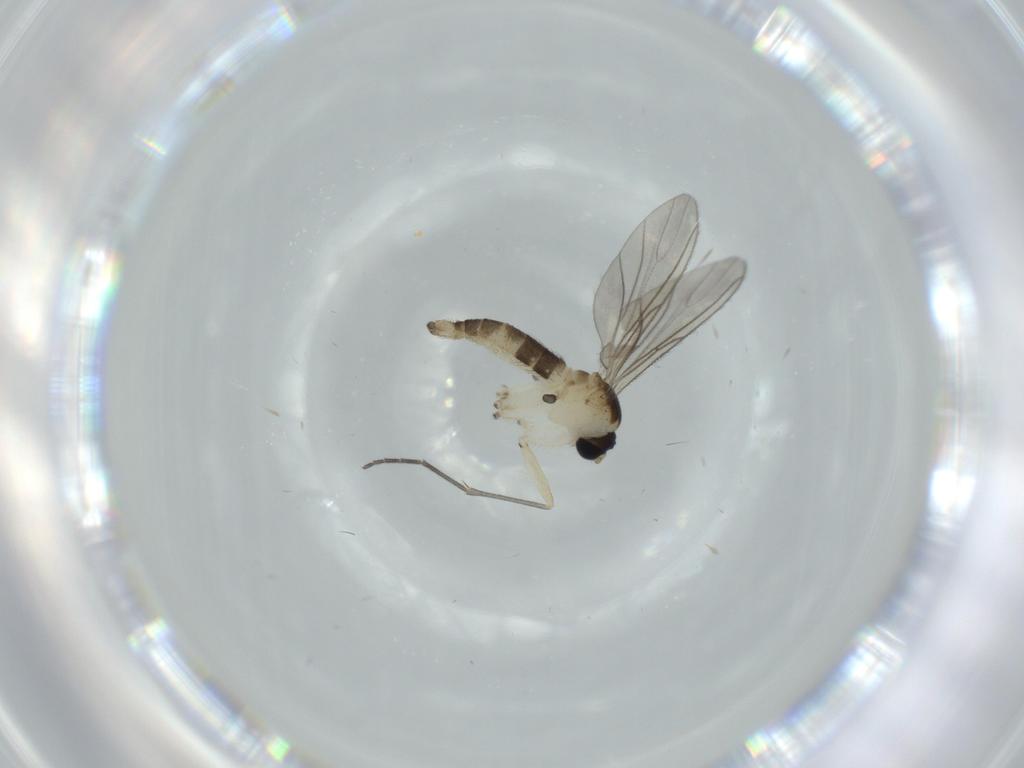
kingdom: Animalia
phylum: Arthropoda
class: Insecta
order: Diptera
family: Sciaridae
